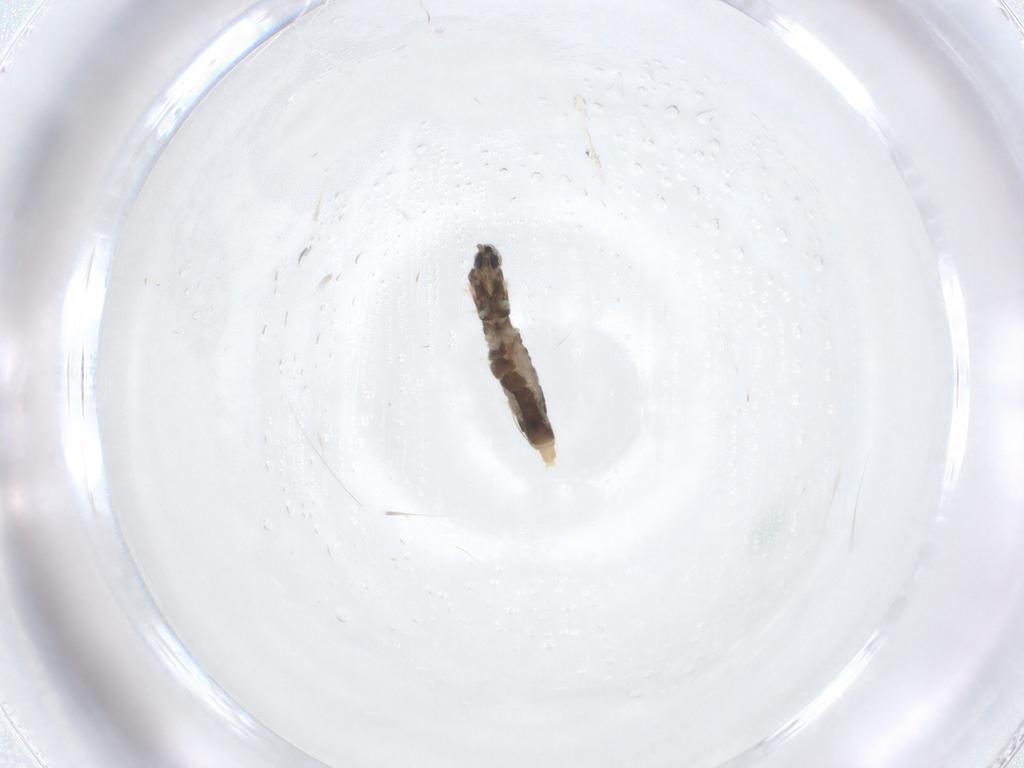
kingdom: Animalia
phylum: Arthropoda
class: Insecta
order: Diptera
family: Cecidomyiidae
